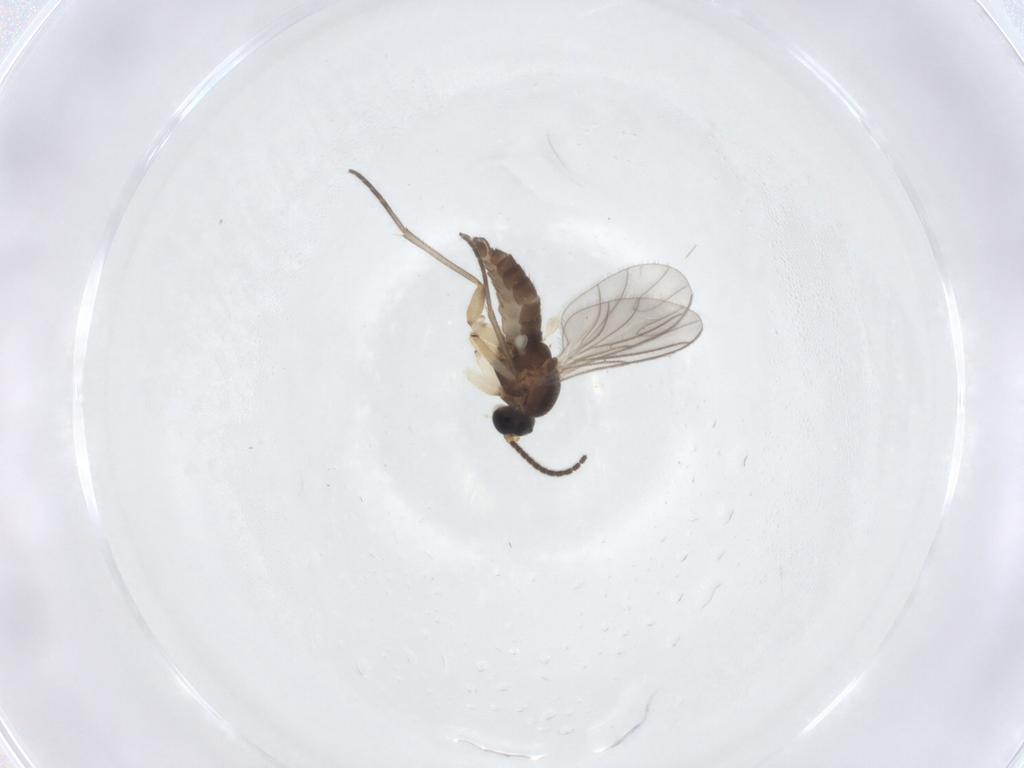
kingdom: Animalia
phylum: Arthropoda
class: Insecta
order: Diptera
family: Sciaridae
